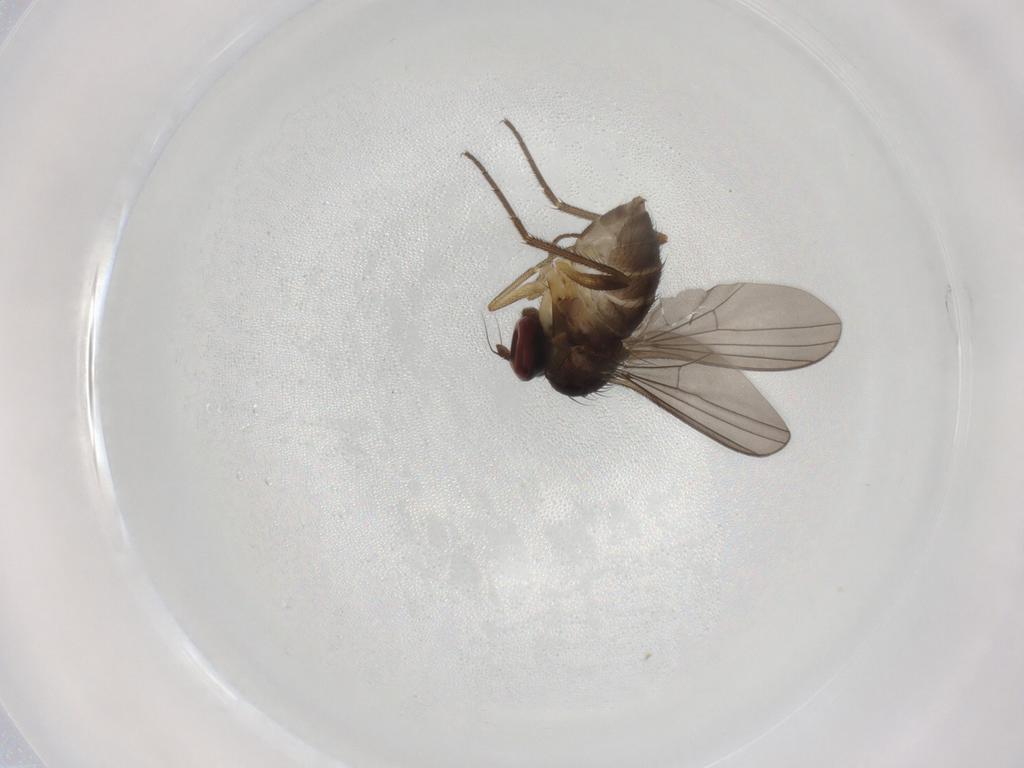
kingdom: Animalia
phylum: Arthropoda
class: Insecta
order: Diptera
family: Dolichopodidae
